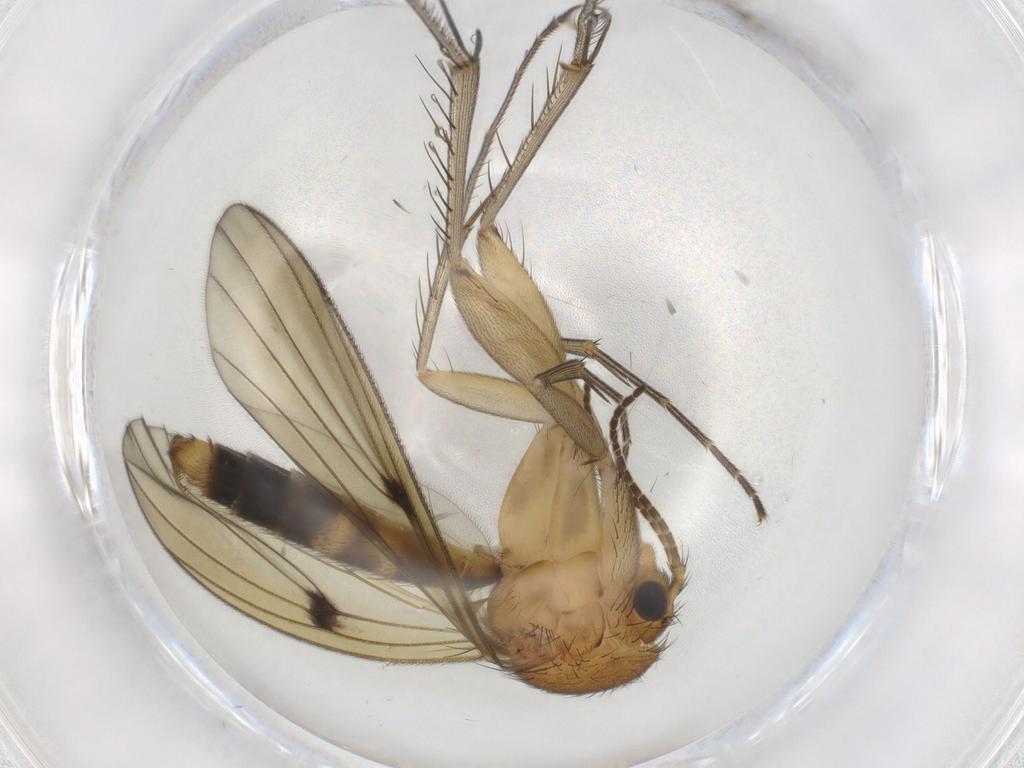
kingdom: Animalia
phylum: Arthropoda
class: Insecta
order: Diptera
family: Mycetophilidae
